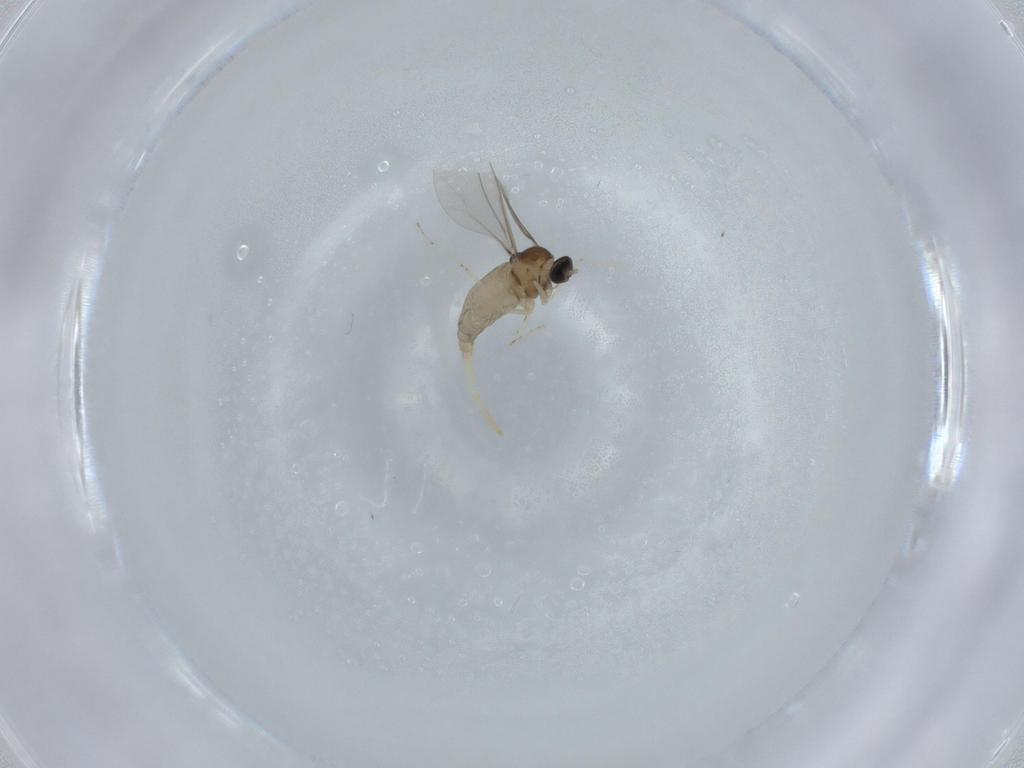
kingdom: Animalia
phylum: Arthropoda
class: Insecta
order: Diptera
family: Cecidomyiidae
